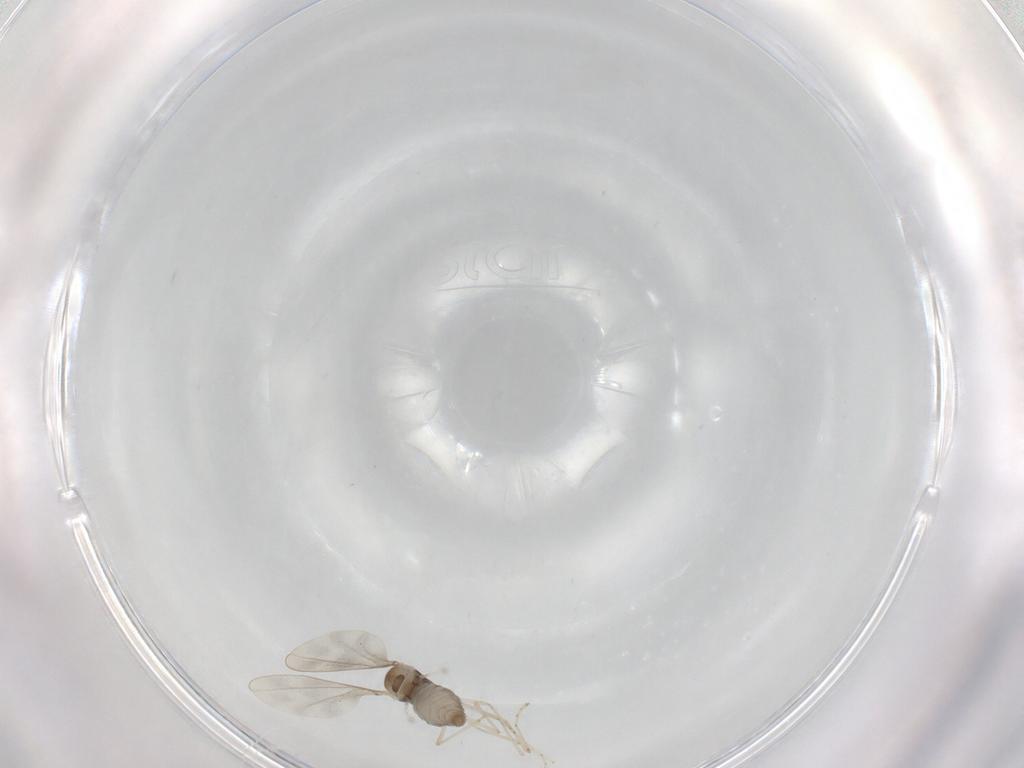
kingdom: Animalia
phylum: Arthropoda
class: Insecta
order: Diptera
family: Cecidomyiidae
